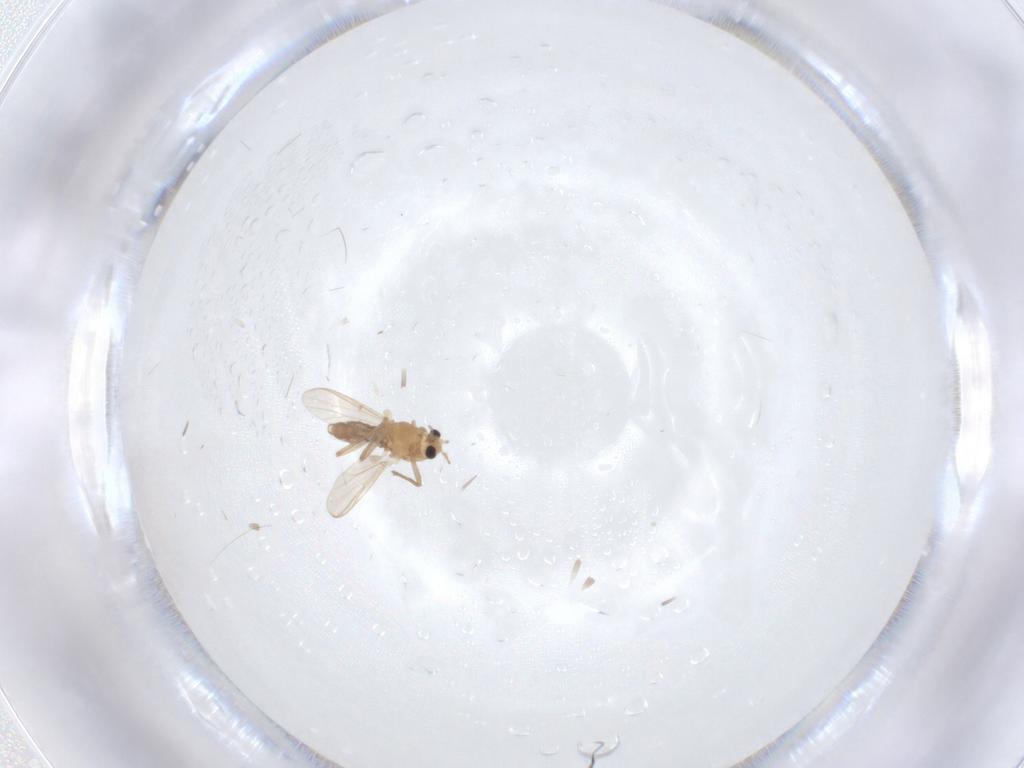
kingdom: Animalia
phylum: Arthropoda
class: Insecta
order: Diptera
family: Chironomidae
